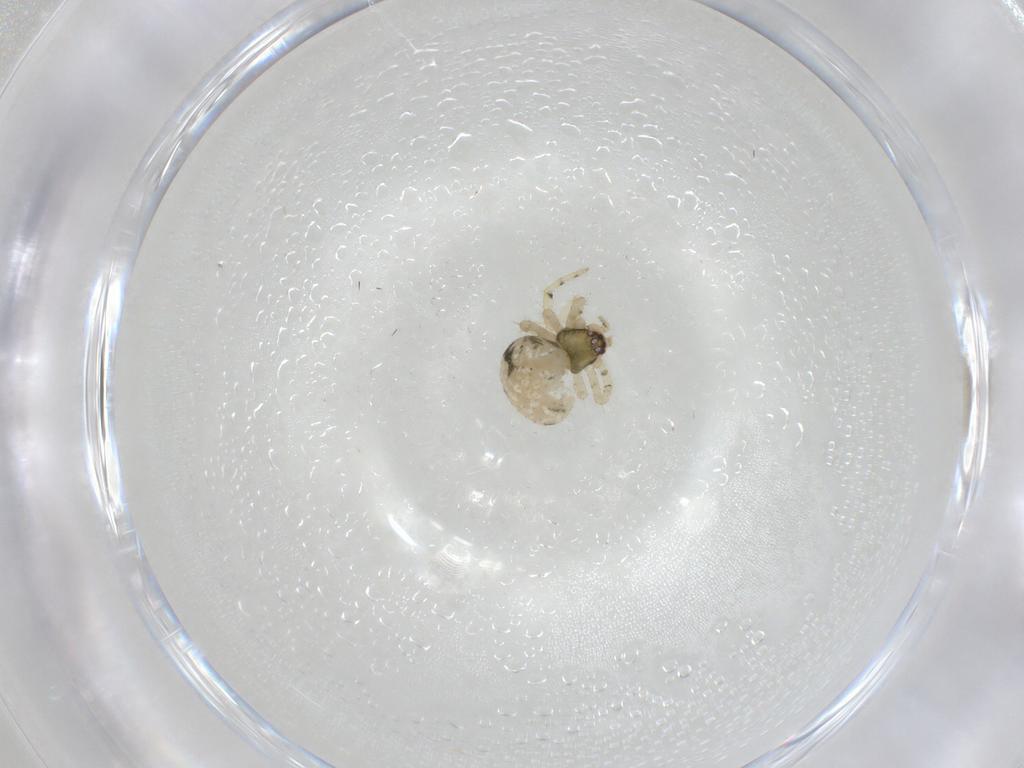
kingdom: Animalia
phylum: Arthropoda
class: Arachnida
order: Araneae
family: Theridiidae
